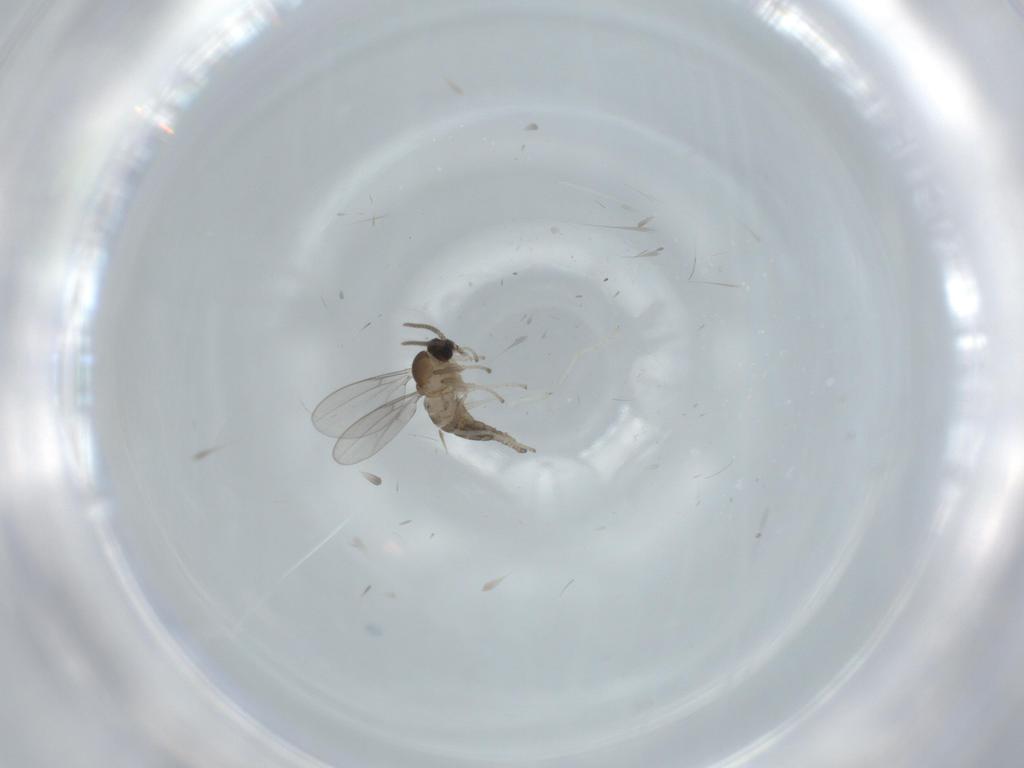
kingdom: Animalia
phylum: Arthropoda
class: Insecta
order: Diptera
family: Cecidomyiidae
